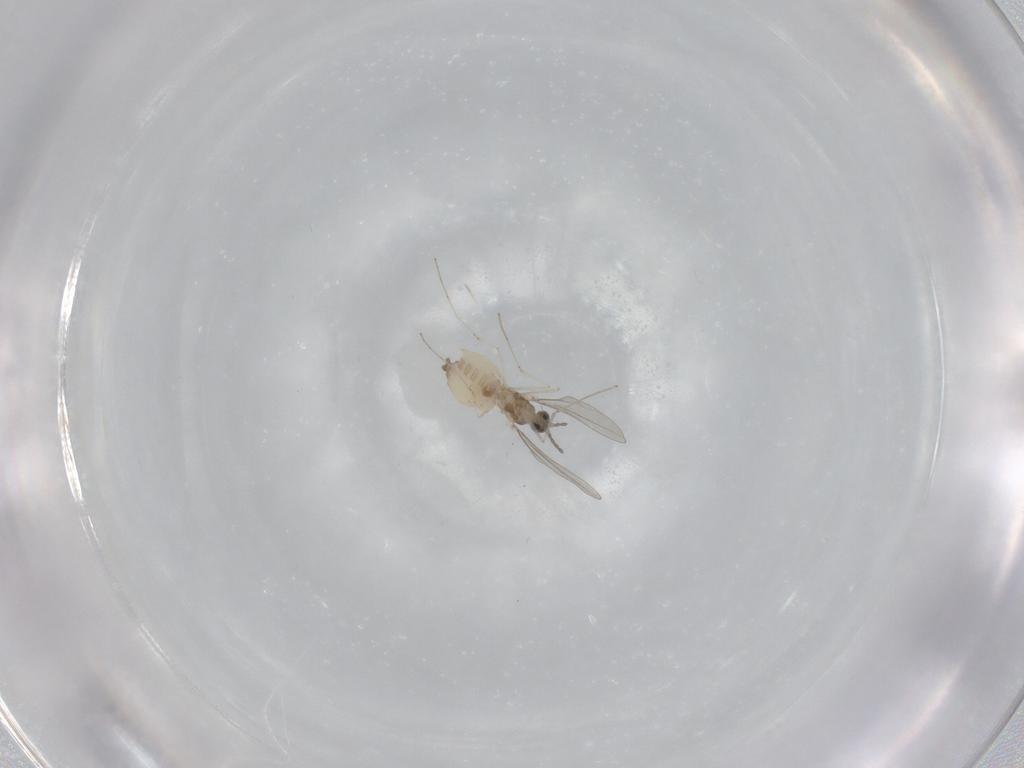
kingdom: Animalia
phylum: Arthropoda
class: Insecta
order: Diptera
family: Cecidomyiidae
